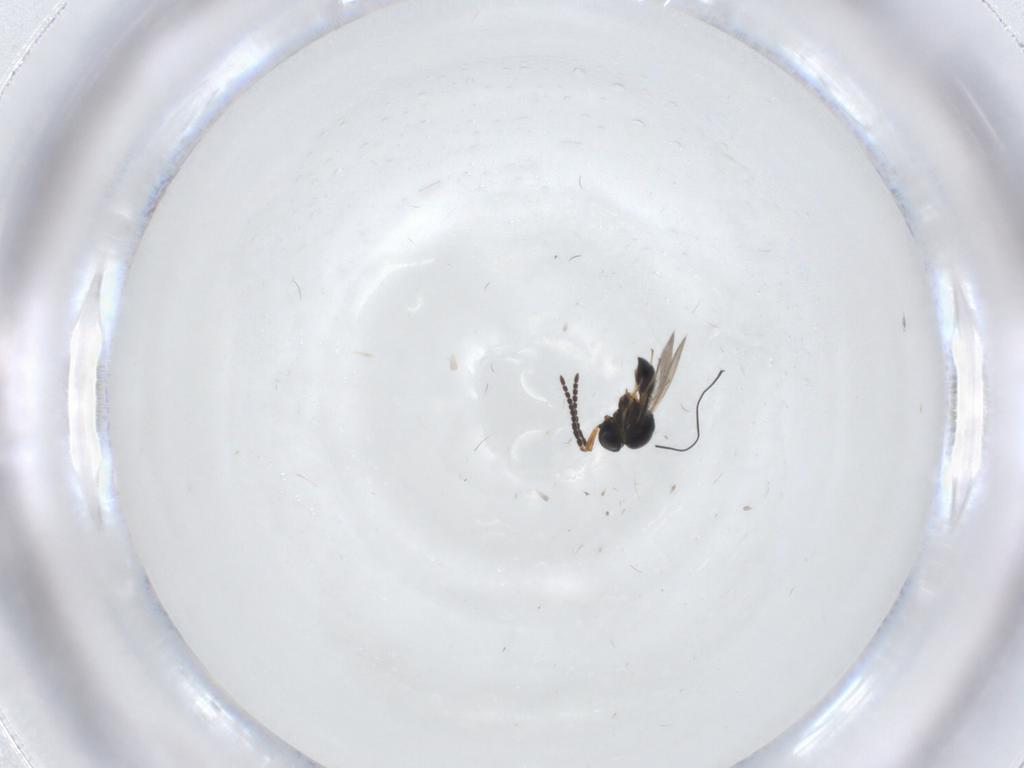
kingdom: Animalia
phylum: Arthropoda
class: Insecta
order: Hymenoptera
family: Scelionidae
